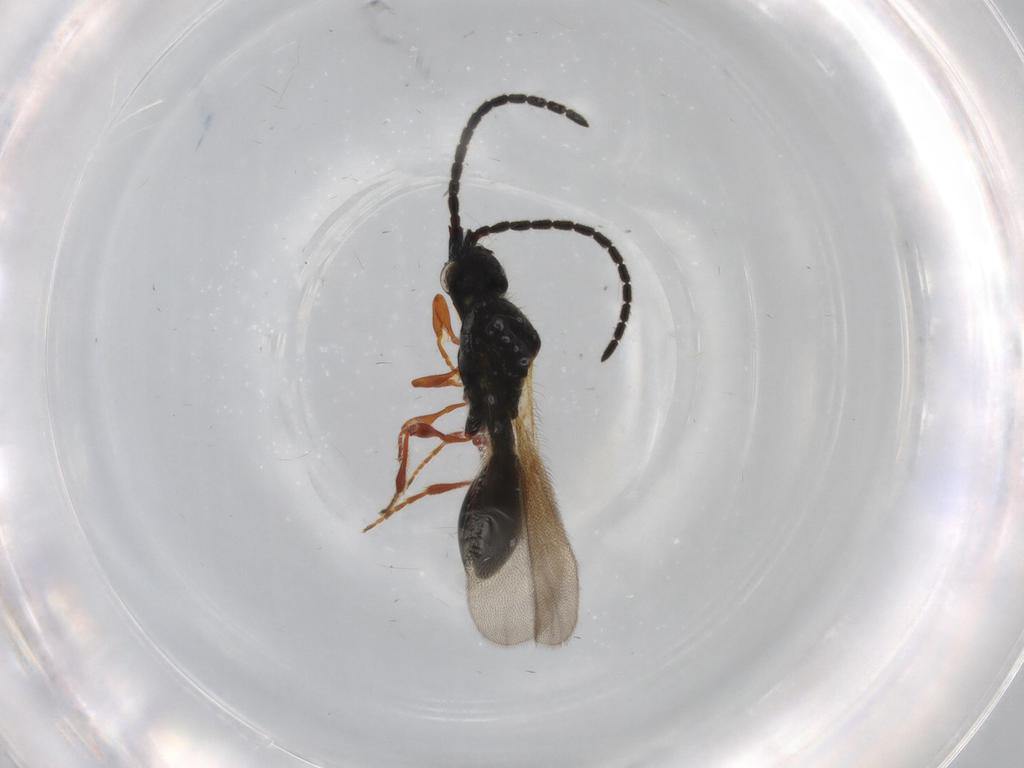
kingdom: Animalia
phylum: Arthropoda
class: Insecta
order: Hymenoptera
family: Diapriidae
